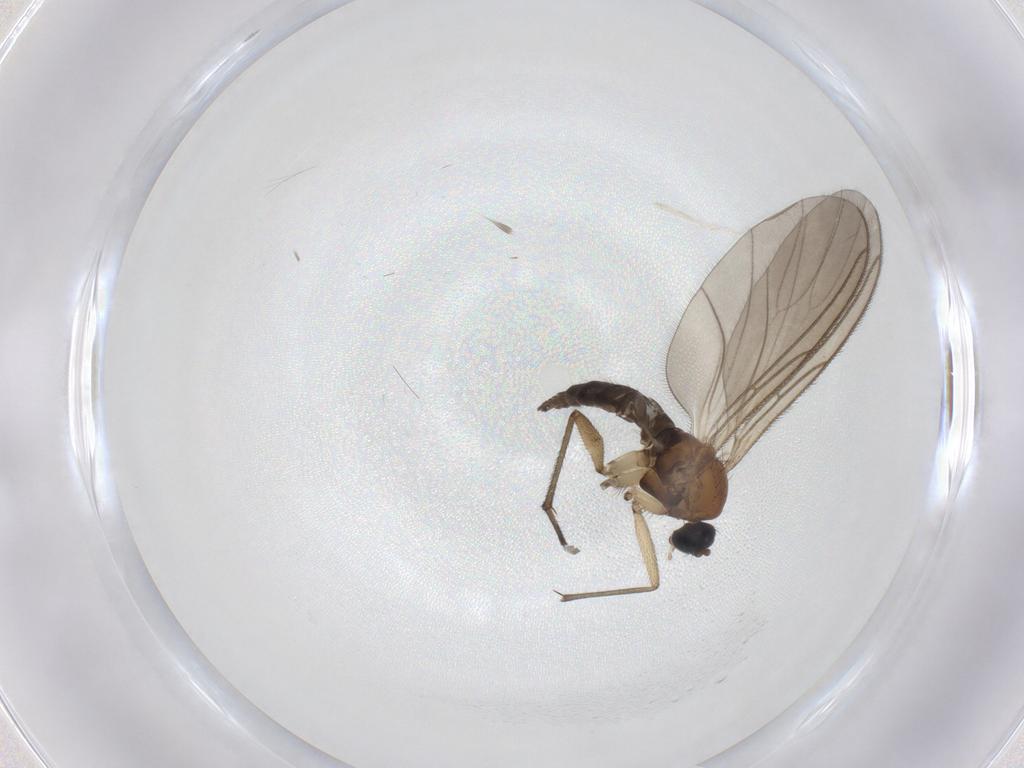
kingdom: Animalia
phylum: Arthropoda
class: Insecta
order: Diptera
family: Sciaridae
